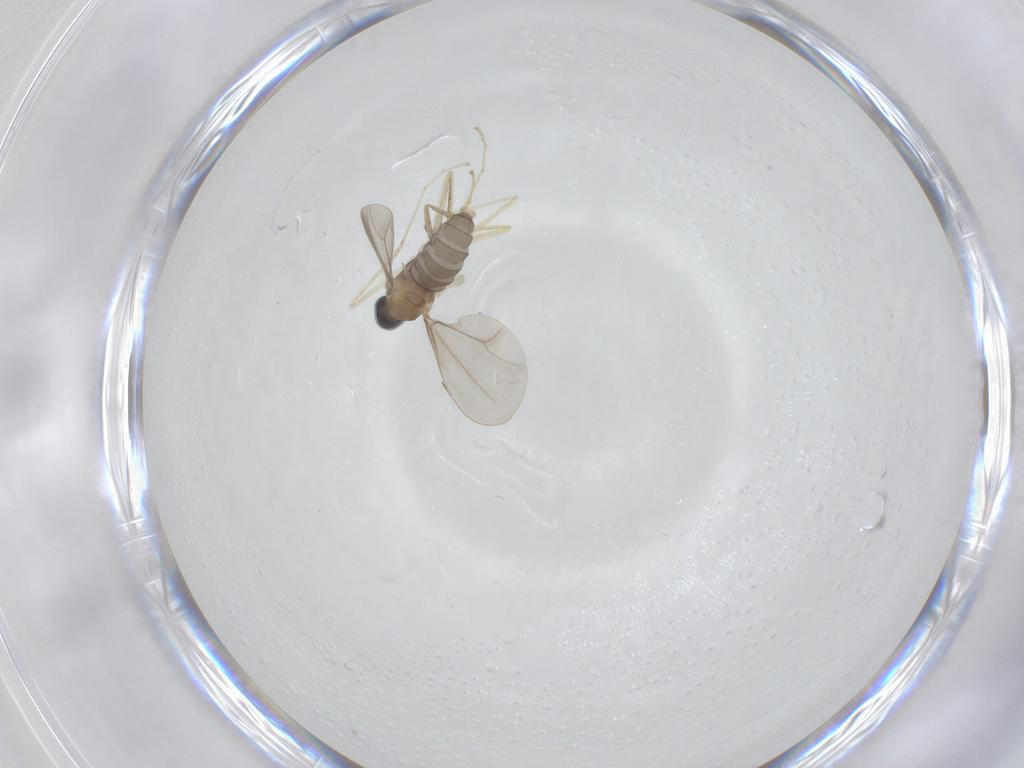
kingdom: Animalia
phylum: Arthropoda
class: Insecta
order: Diptera
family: Cecidomyiidae
